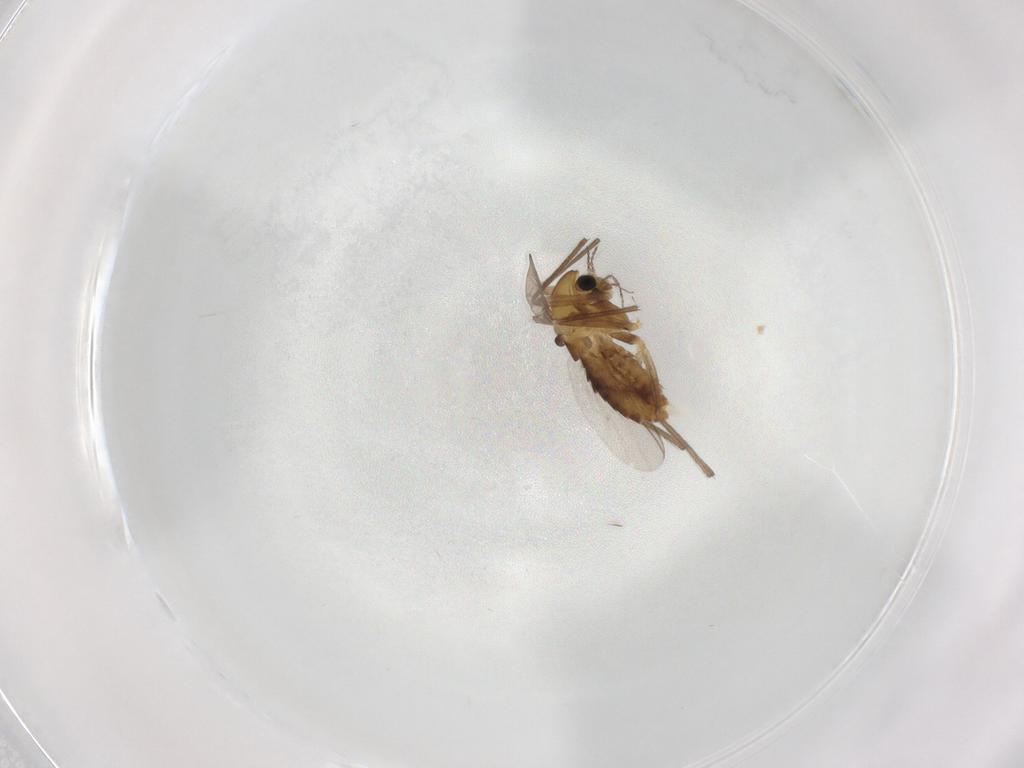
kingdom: Animalia
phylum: Arthropoda
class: Insecta
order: Diptera
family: Chironomidae
